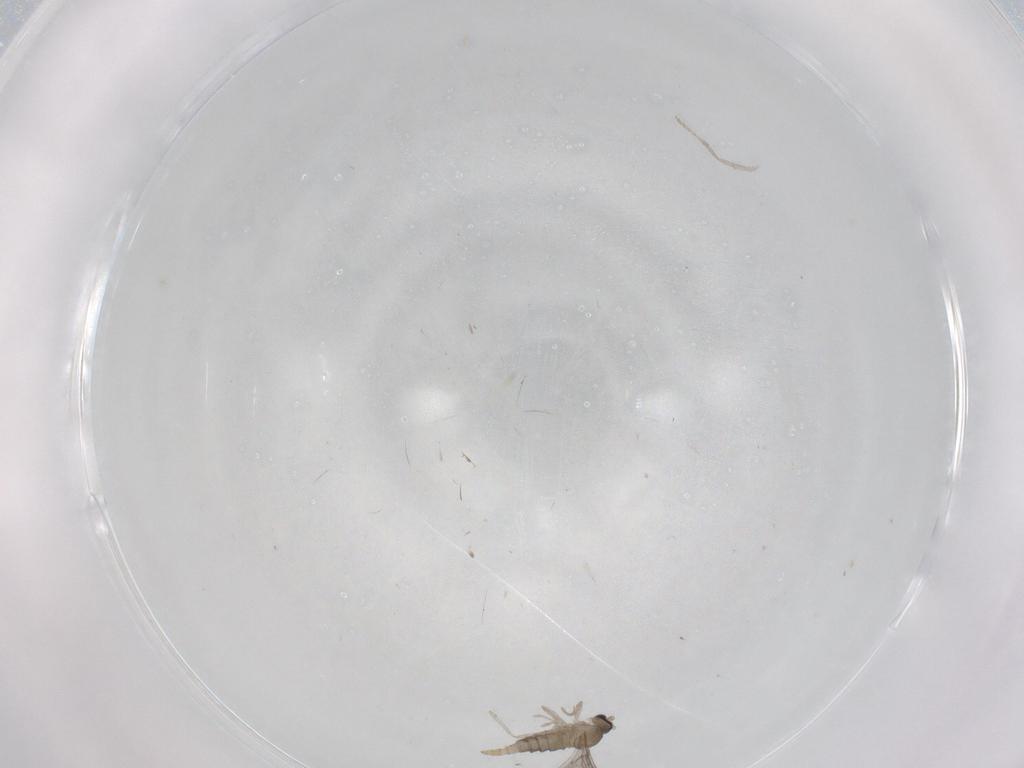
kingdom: Animalia
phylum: Arthropoda
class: Insecta
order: Diptera
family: Cecidomyiidae
